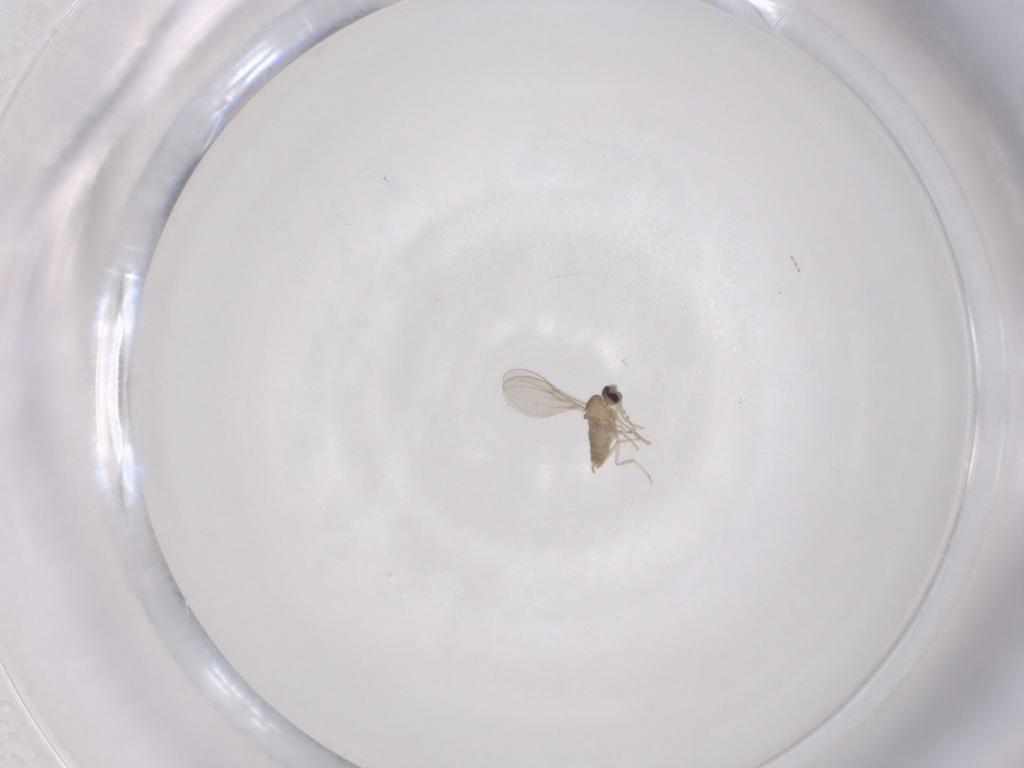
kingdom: Animalia
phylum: Arthropoda
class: Insecta
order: Diptera
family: Cecidomyiidae
